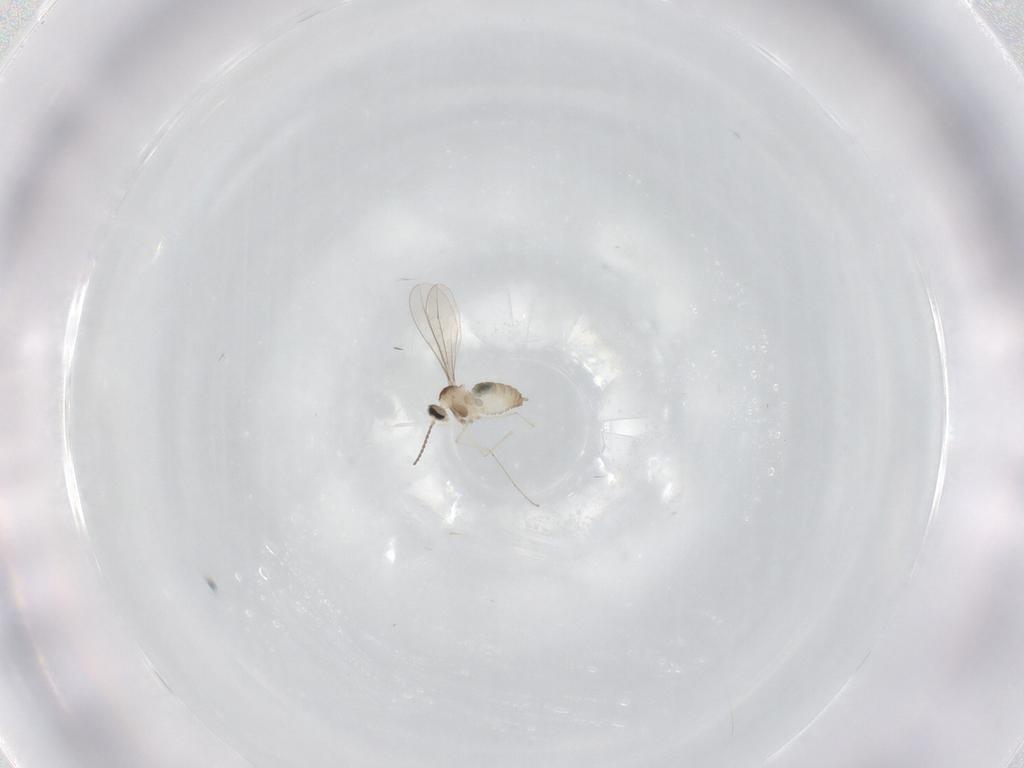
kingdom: Animalia
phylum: Arthropoda
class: Insecta
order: Diptera
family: Cecidomyiidae
